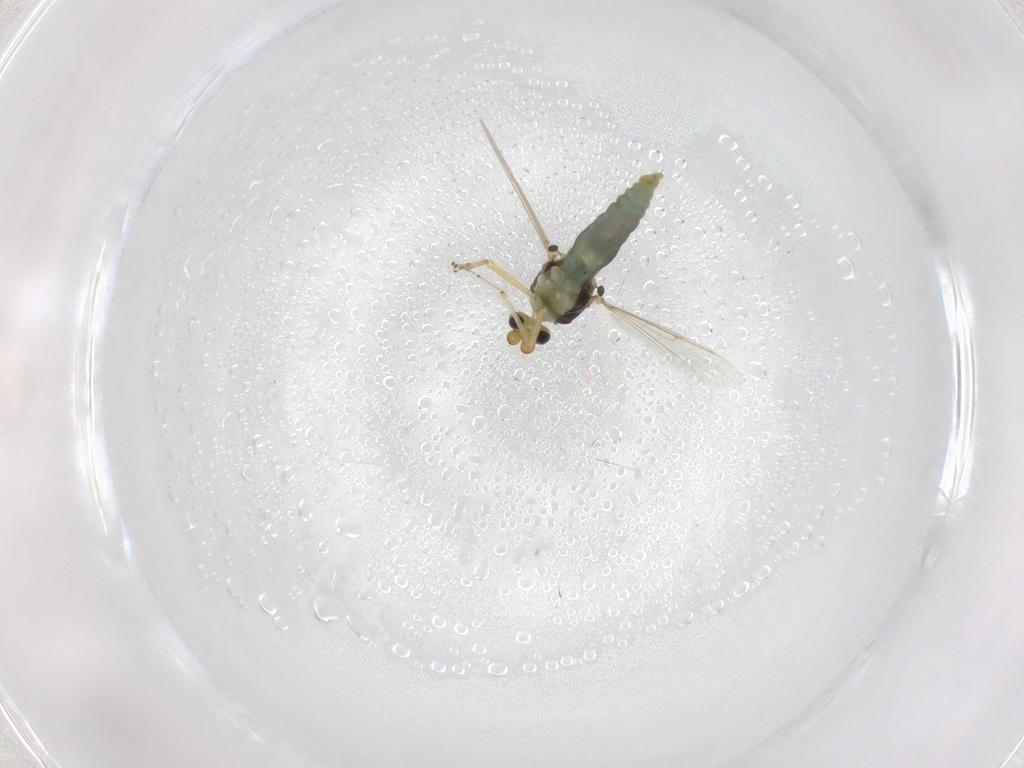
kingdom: Animalia
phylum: Arthropoda
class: Insecta
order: Diptera
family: Ceratopogonidae
